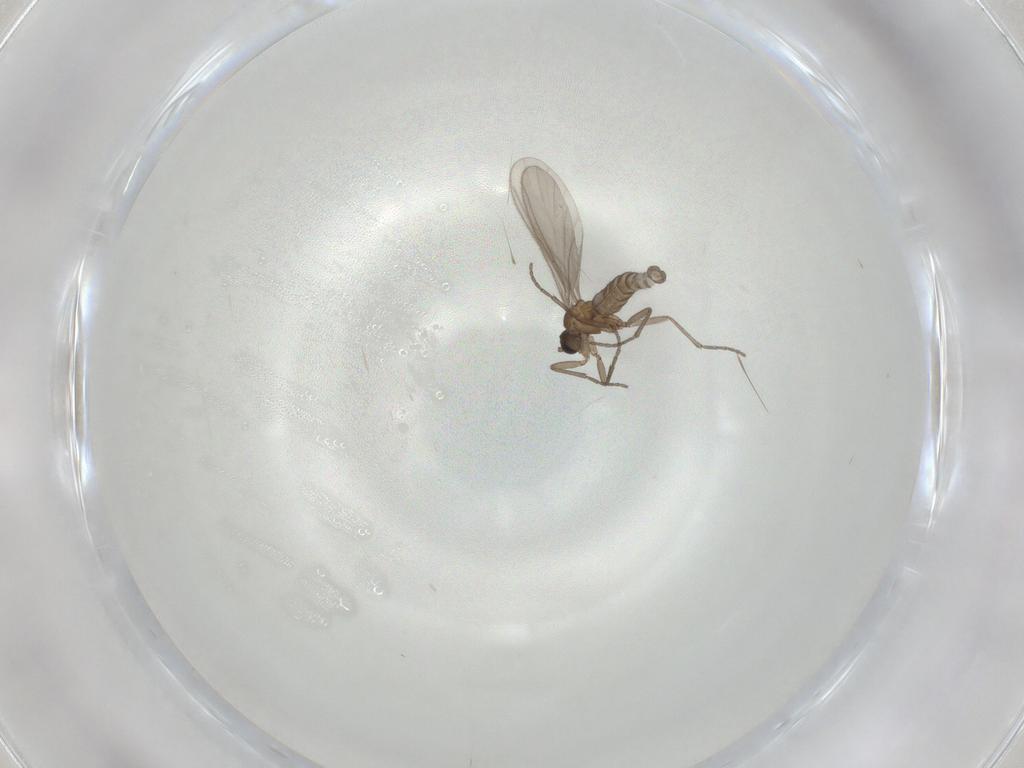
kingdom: Animalia
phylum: Arthropoda
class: Insecta
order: Diptera
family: Sciaridae
